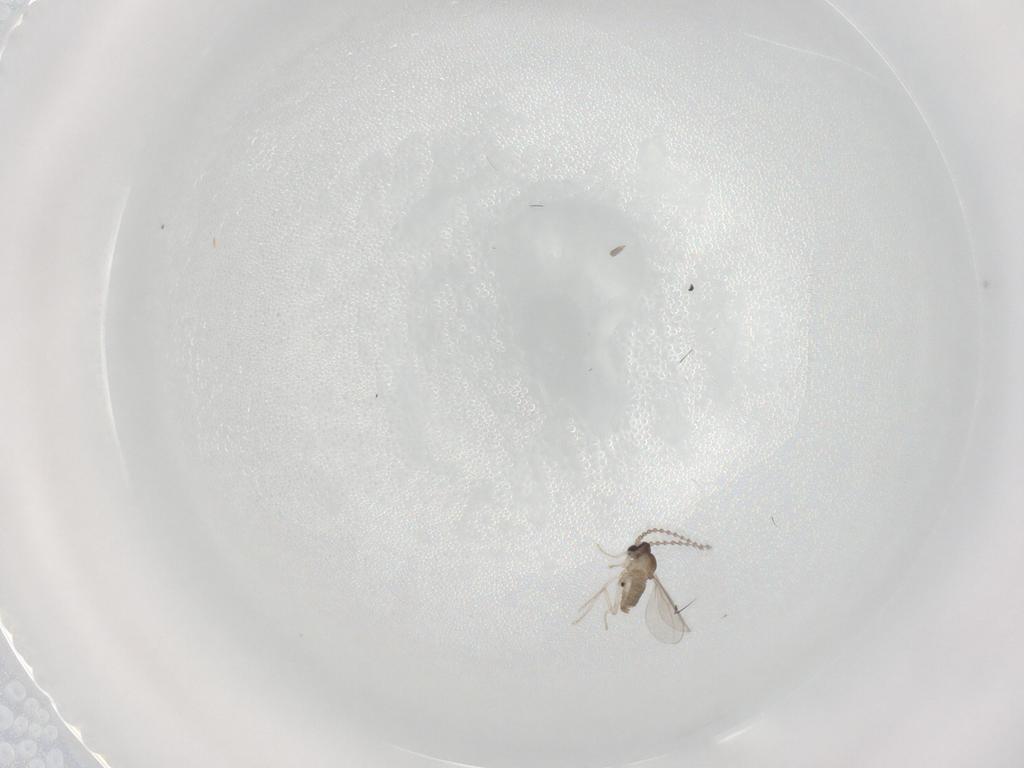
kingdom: Animalia
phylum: Arthropoda
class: Insecta
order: Diptera
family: Cecidomyiidae
